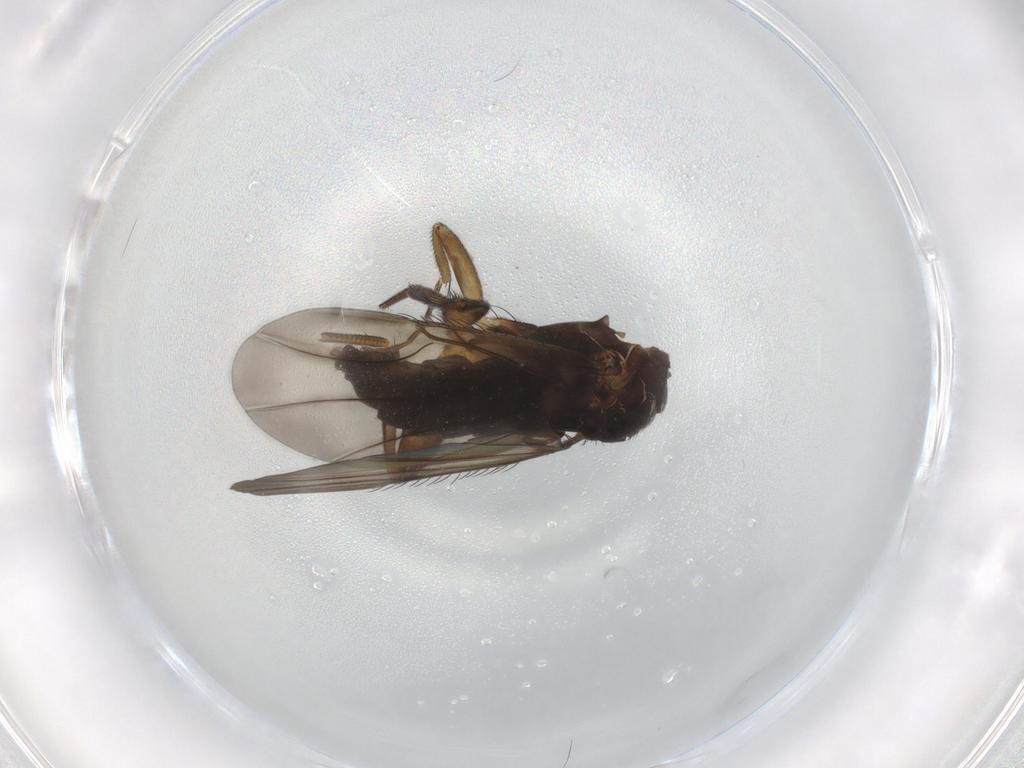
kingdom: Animalia
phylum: Arthropoda
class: Insecta
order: Diptera
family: Phoridae
